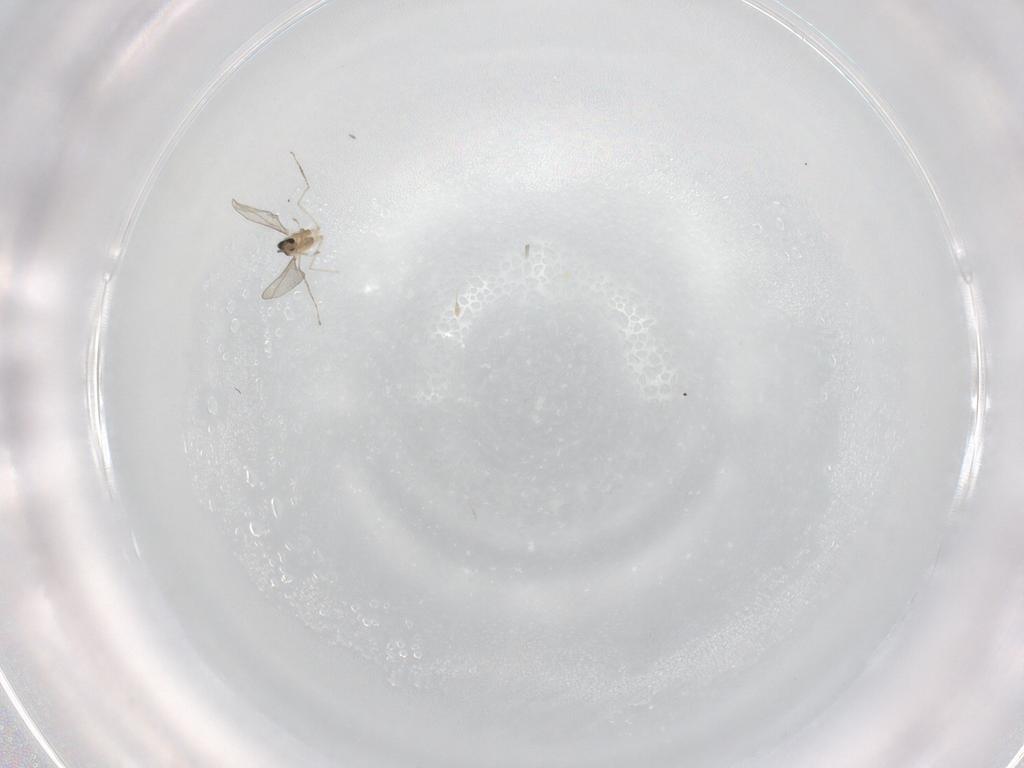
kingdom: Animalia
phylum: Arthropoda
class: Insecta
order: Diptera
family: Cecidomyiidae
